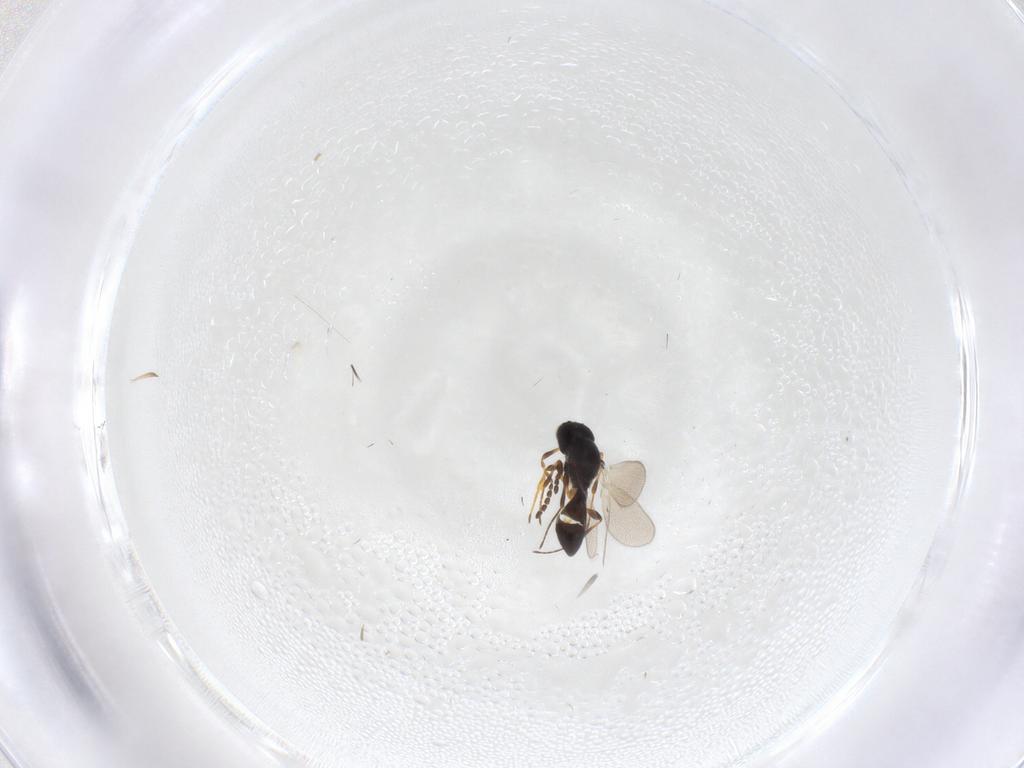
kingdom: Animalia
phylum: Arthropoda
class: Insecta
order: Hymenoptera
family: Platygastridae
